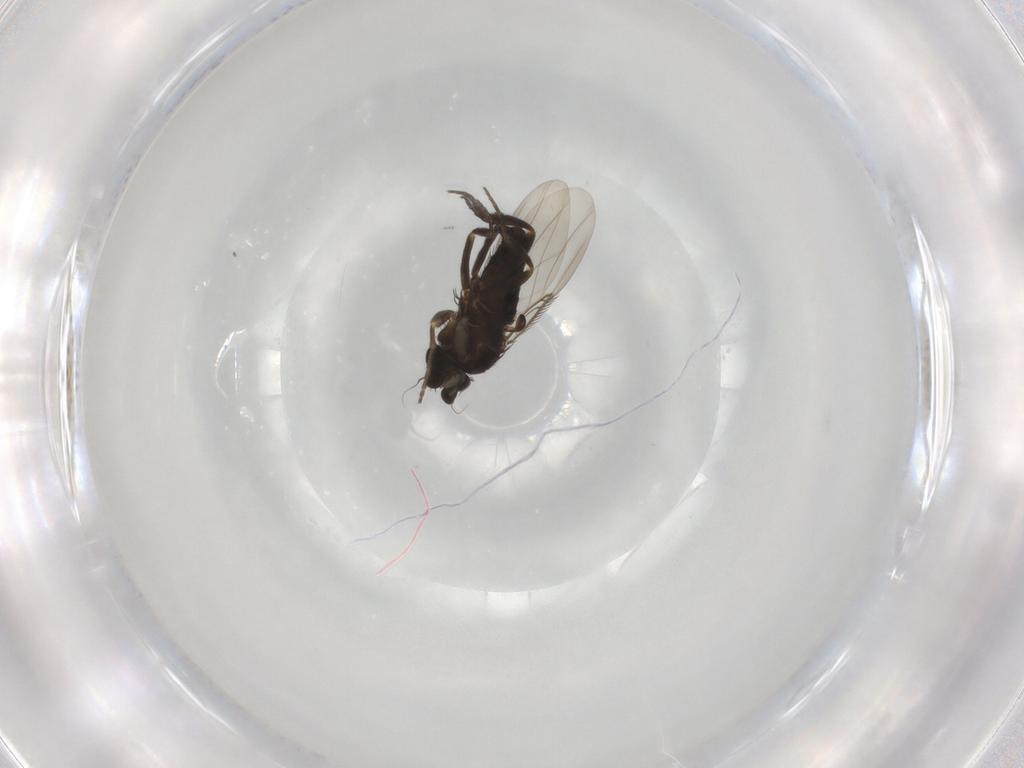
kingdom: Animalia
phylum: Arthropoda
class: Insecta
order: Diptera
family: Phoridae
